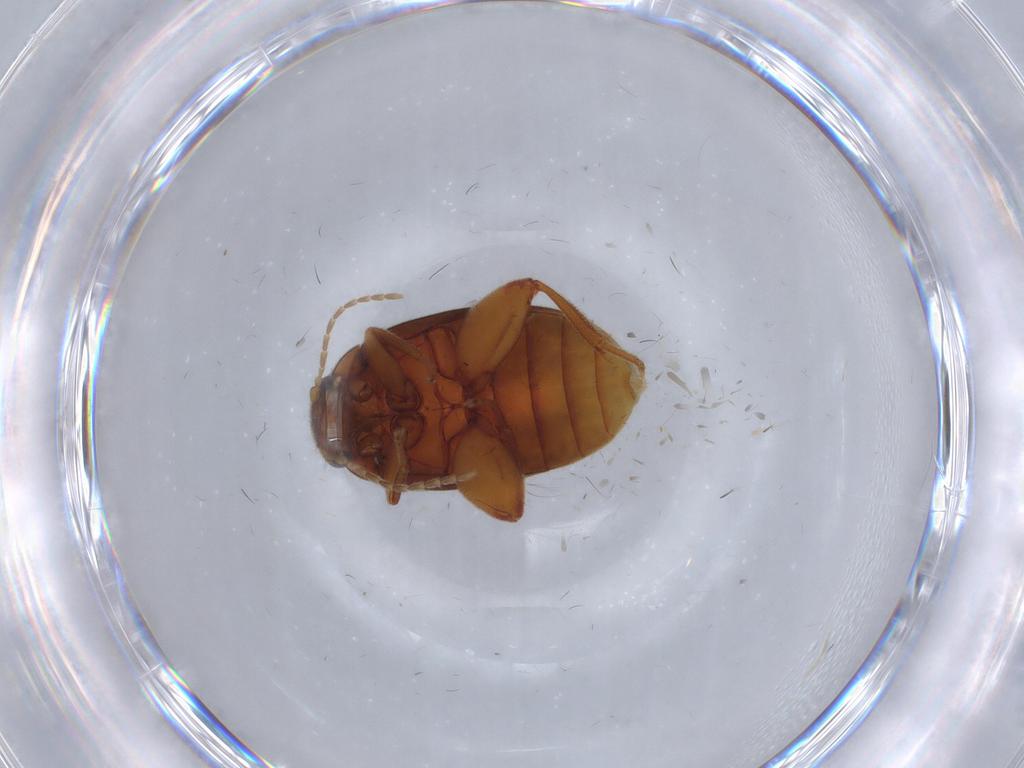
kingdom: Animalia
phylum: Arthropoda
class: Insecta
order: Coleoptera
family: Scirtidae
